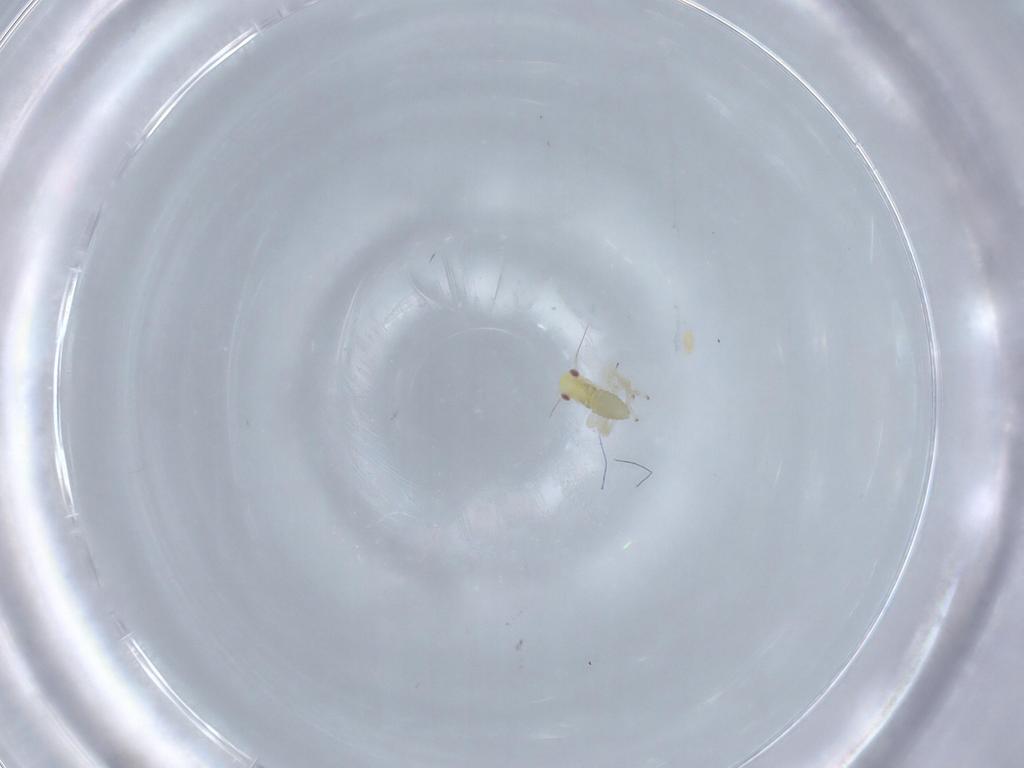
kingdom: Animalia
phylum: Arthropoda
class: Insecta
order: Hemiptera
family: Cicadellidae
